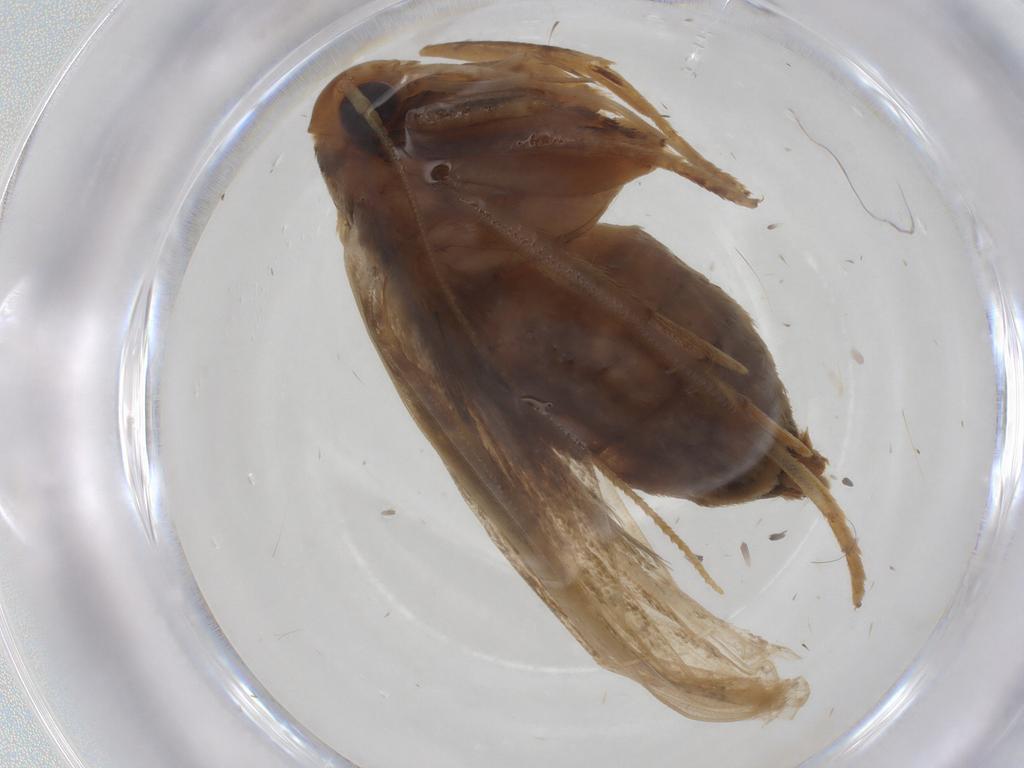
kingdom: Animalia
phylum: Arthropoda
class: Insecta
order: Lepidoptera
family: Lecithoceridae
